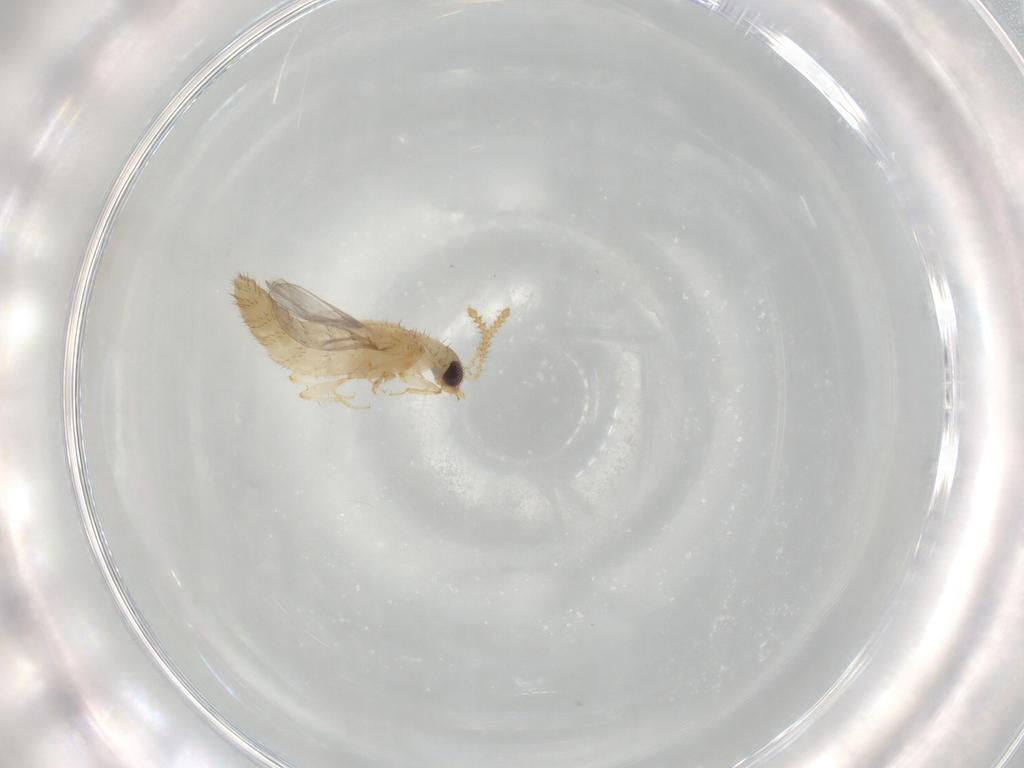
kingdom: Animalia
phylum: Arthropoda
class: Insecta
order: Coleoptera
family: Staphylinidae
